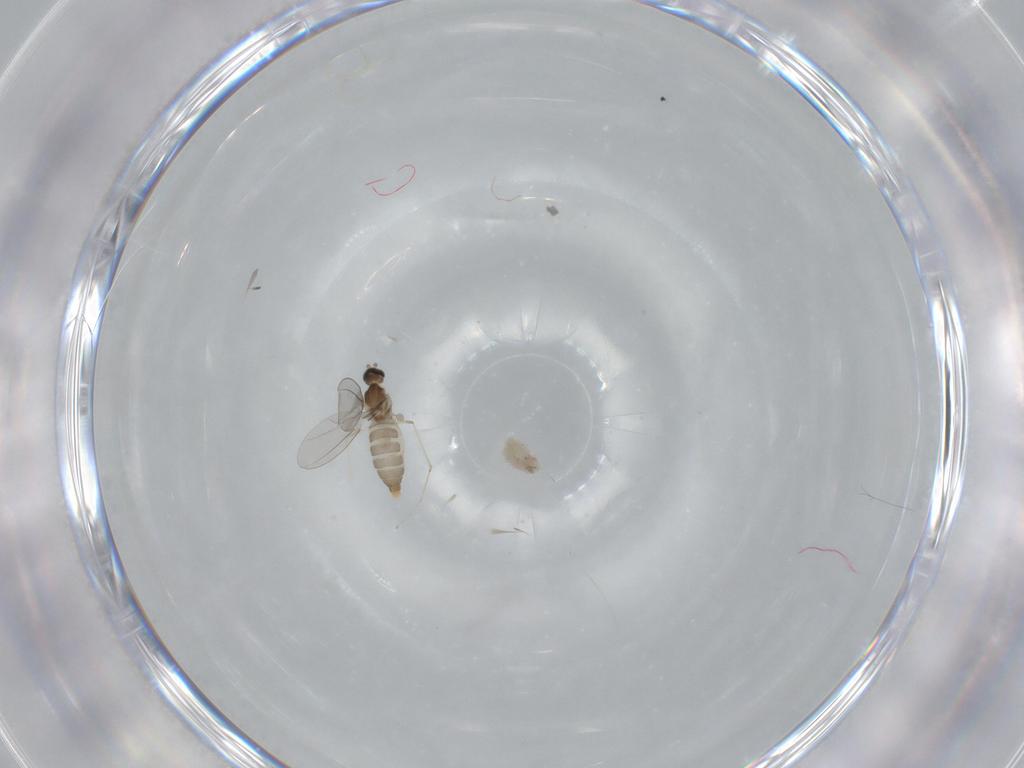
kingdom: Animalia
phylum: Arthropoda
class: Insecta
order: Diptera
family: Cecidomyiidae
